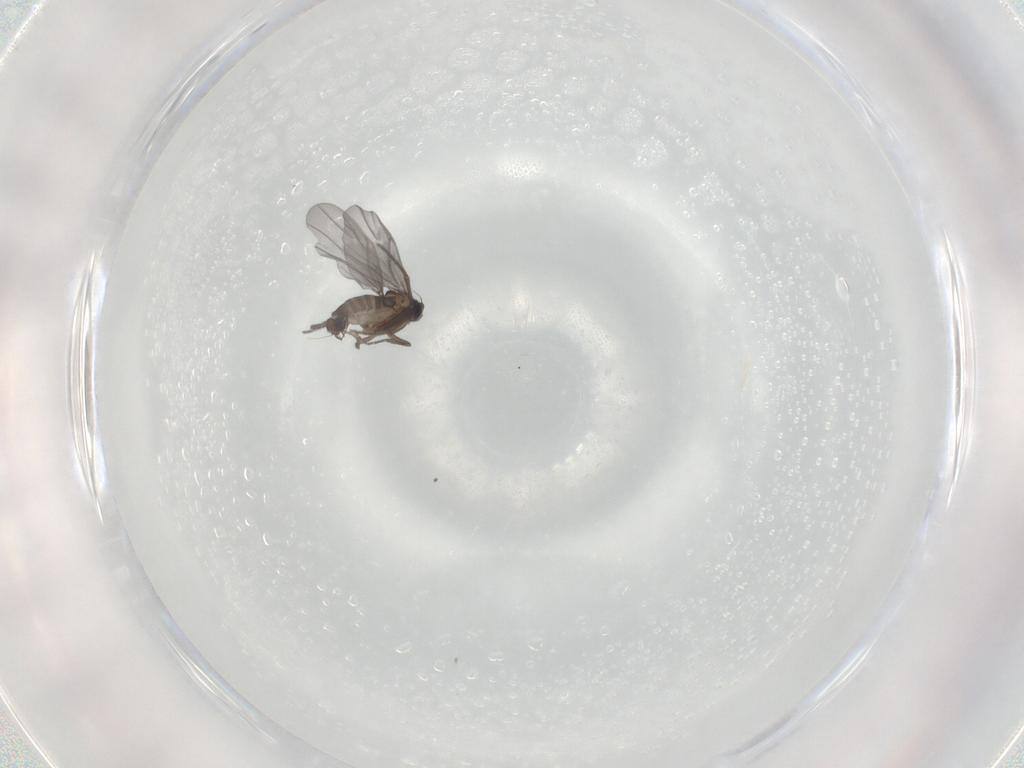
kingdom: Animalia
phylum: Arthropoda
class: Insecta
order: Diptera
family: Phoridae
